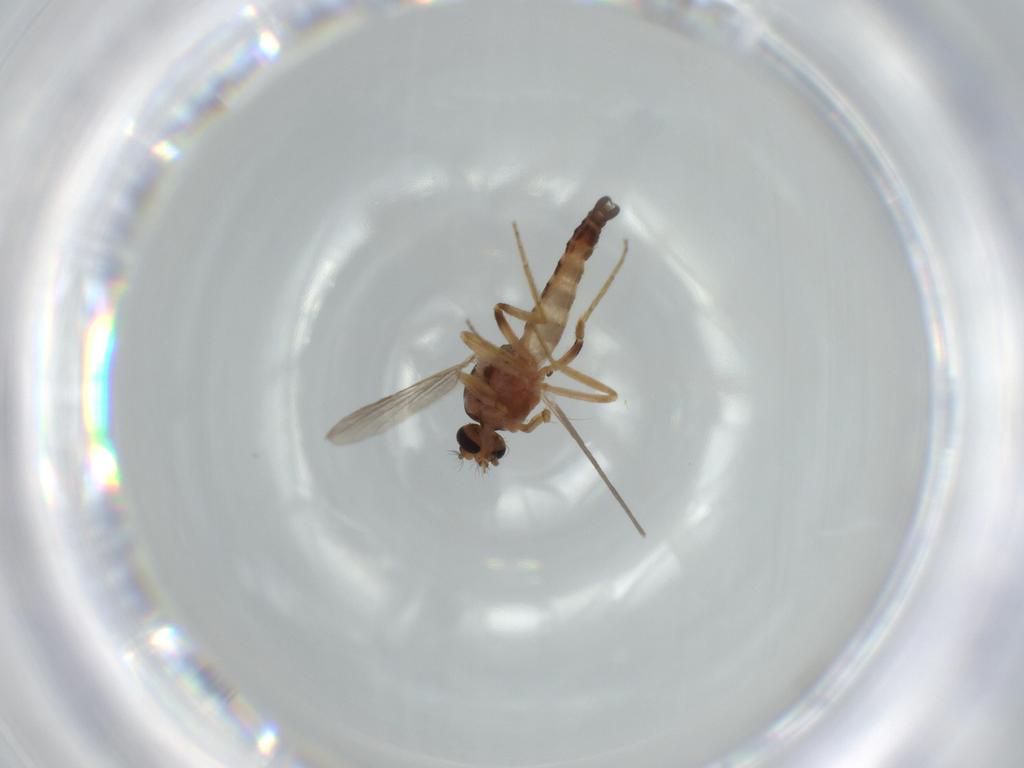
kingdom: Animalia
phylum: Arthropoda
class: Insecta
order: Diptera
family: Ceratopogonidae
